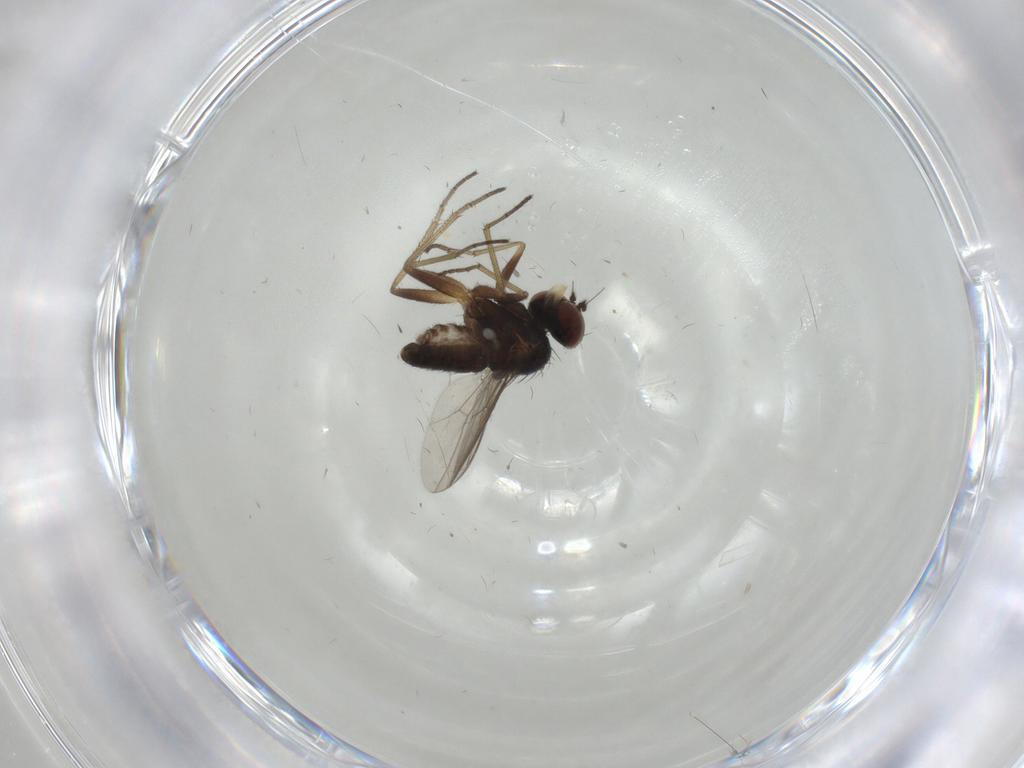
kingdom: Animalia
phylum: Arthropoda
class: Insecta
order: Diptera
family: Dolichopodidae
